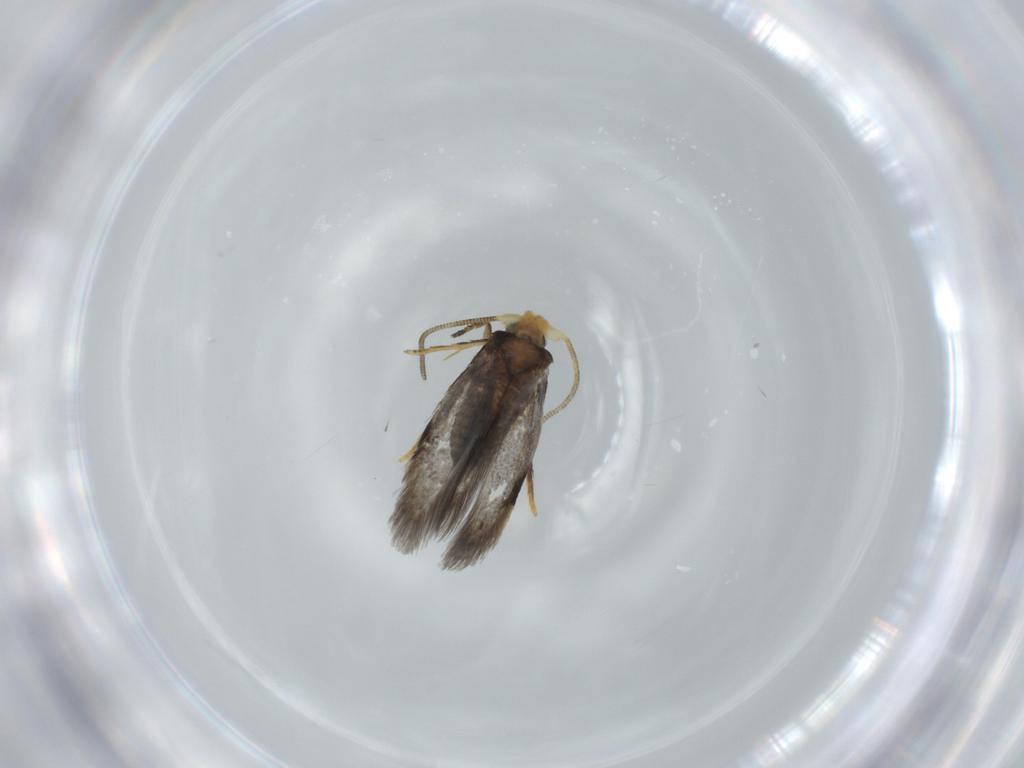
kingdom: Animalia
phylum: Arthropoda
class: Insecta
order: Lepidoptera
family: Nepticulidae
